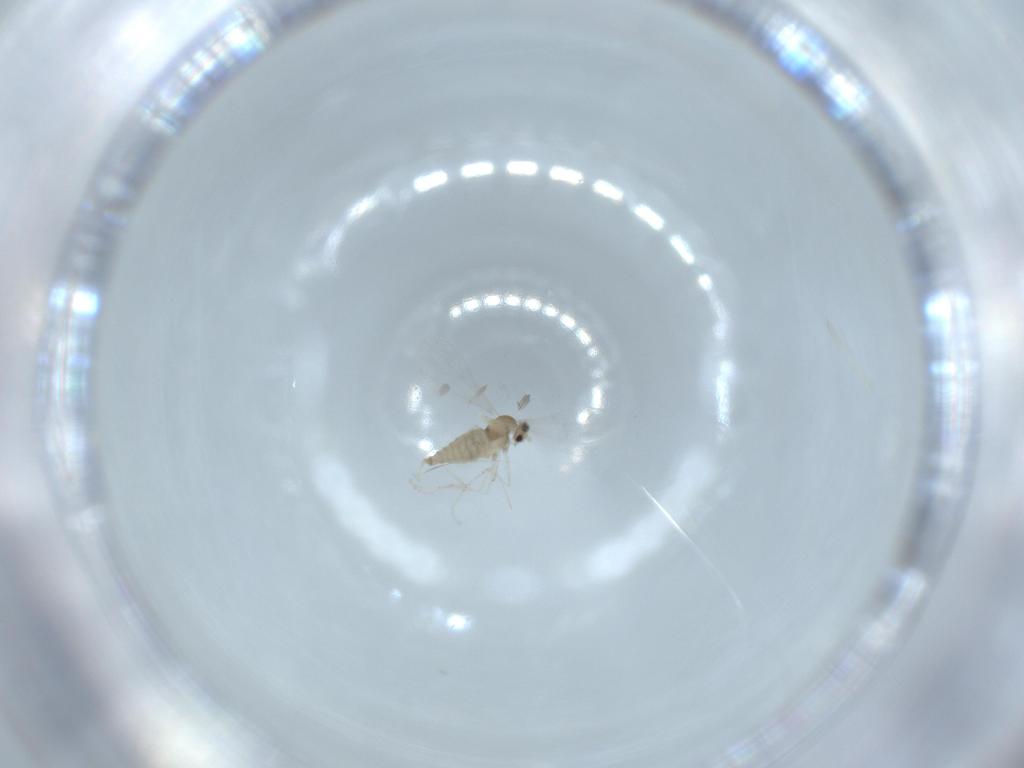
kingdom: Animalia
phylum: Arthropoda
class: Insecta
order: Diptera
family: Cecidomyiidae
